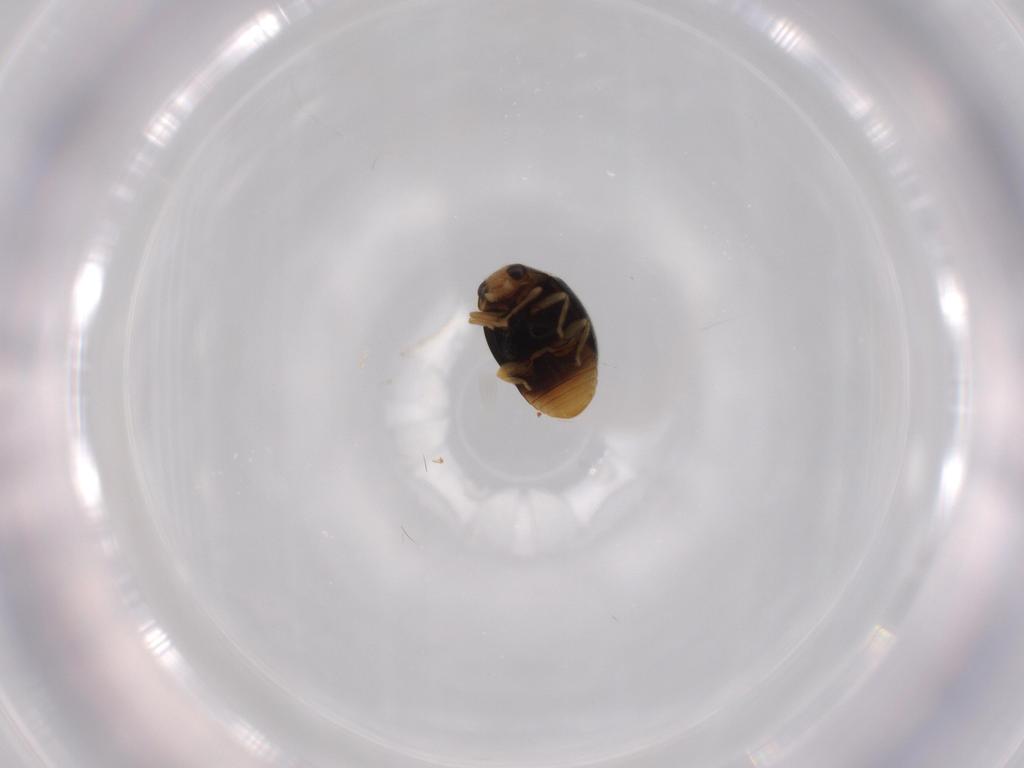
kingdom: Animalia
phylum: Arthropoda
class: Insecta
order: Coleoptera
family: Coccinellidae
